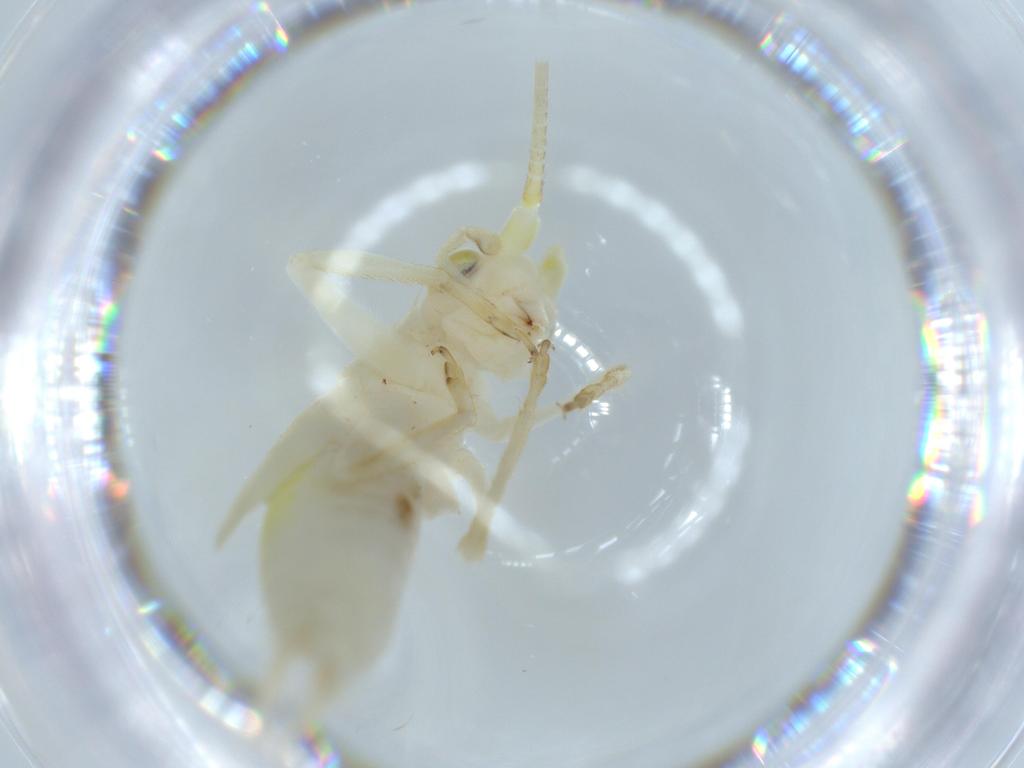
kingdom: Animalia
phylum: Arthropoda
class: Insecta
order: Orthoptera
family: Trigonidiidae
